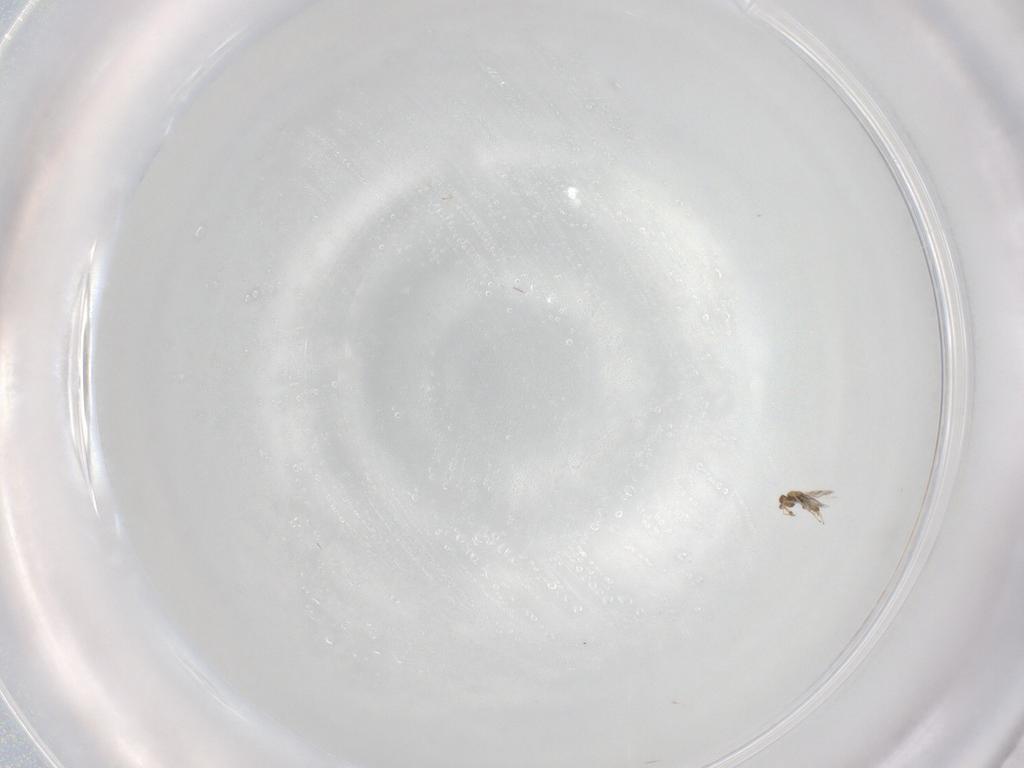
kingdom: Animalia
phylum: Arthropoda
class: Insecta
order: Hymenoptera
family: Eulophidae
